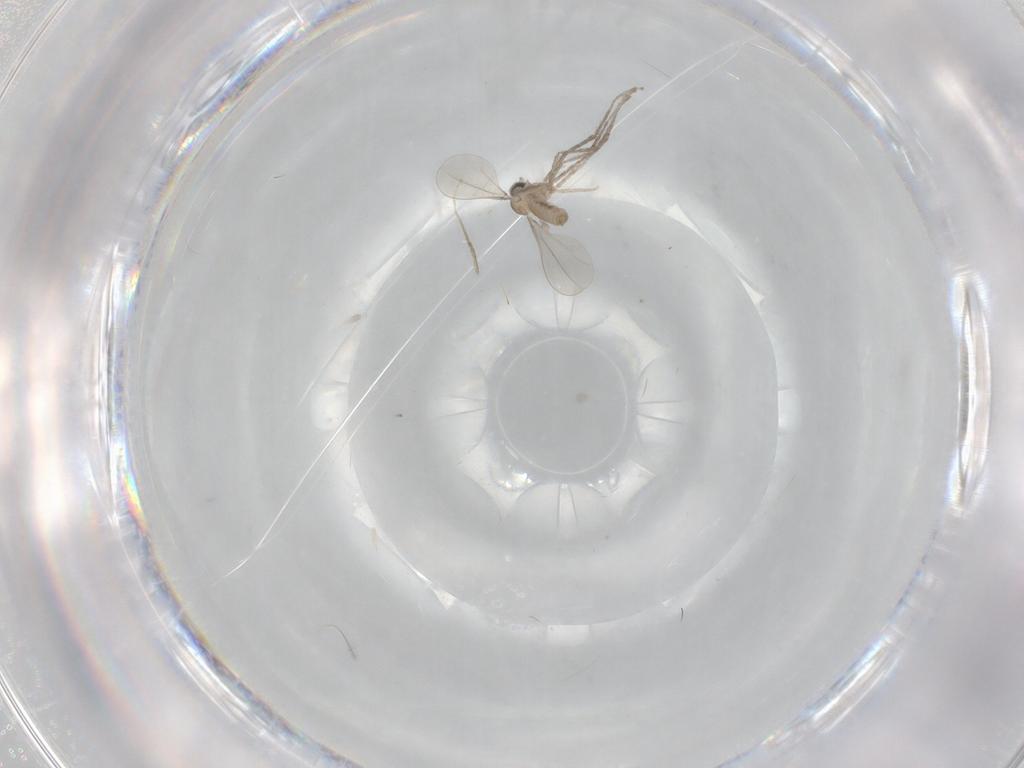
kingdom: Animalia
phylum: Arthropoda
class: Insecta
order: Diptera
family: Cecidomyiidae
